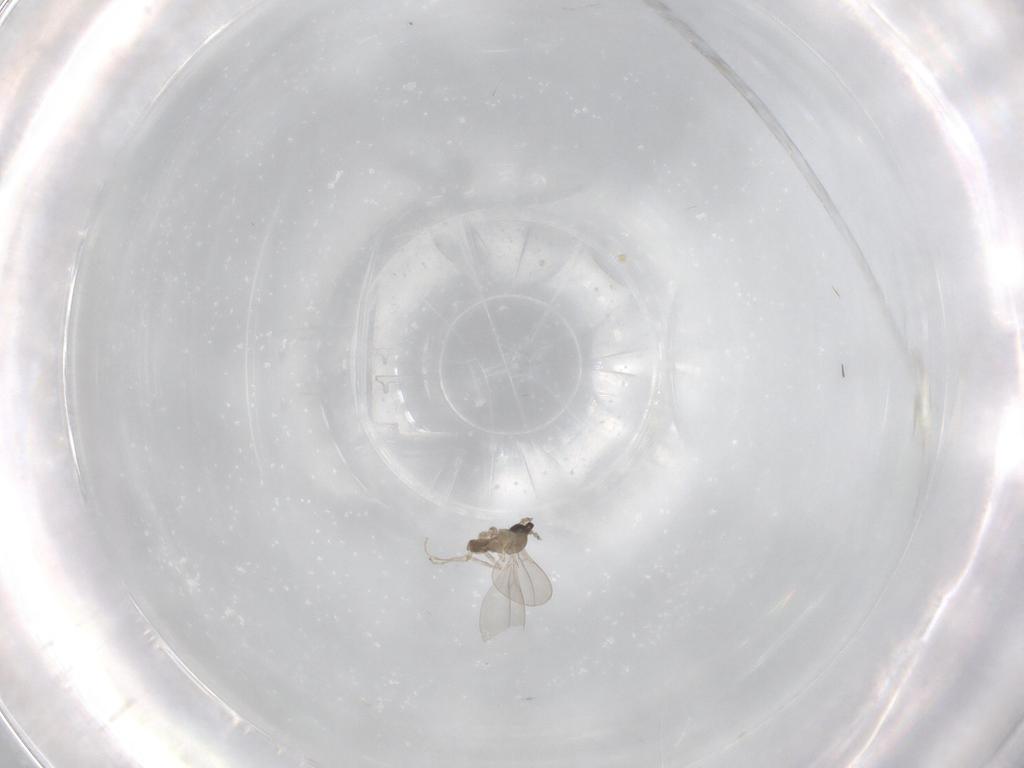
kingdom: Animalia
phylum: Arthropoda
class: Insecta
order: Diptera
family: Cecidomyiidae
